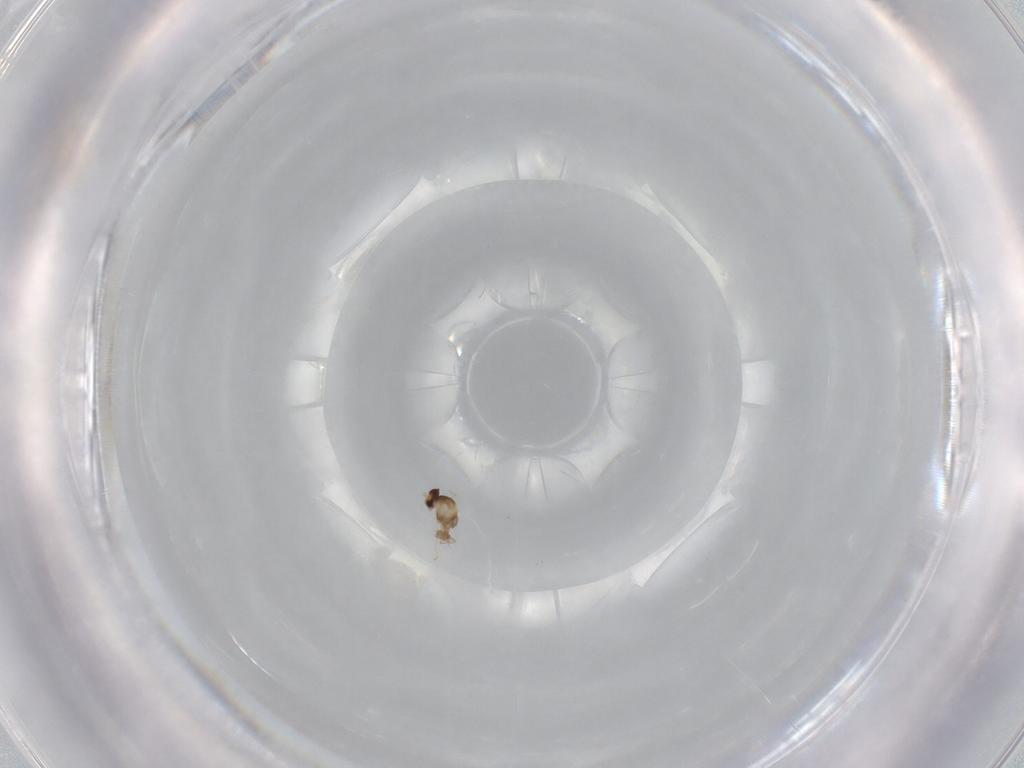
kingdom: Animalia
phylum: Arthropoda
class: Insecta
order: Diptera
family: Cecidomyiidae
